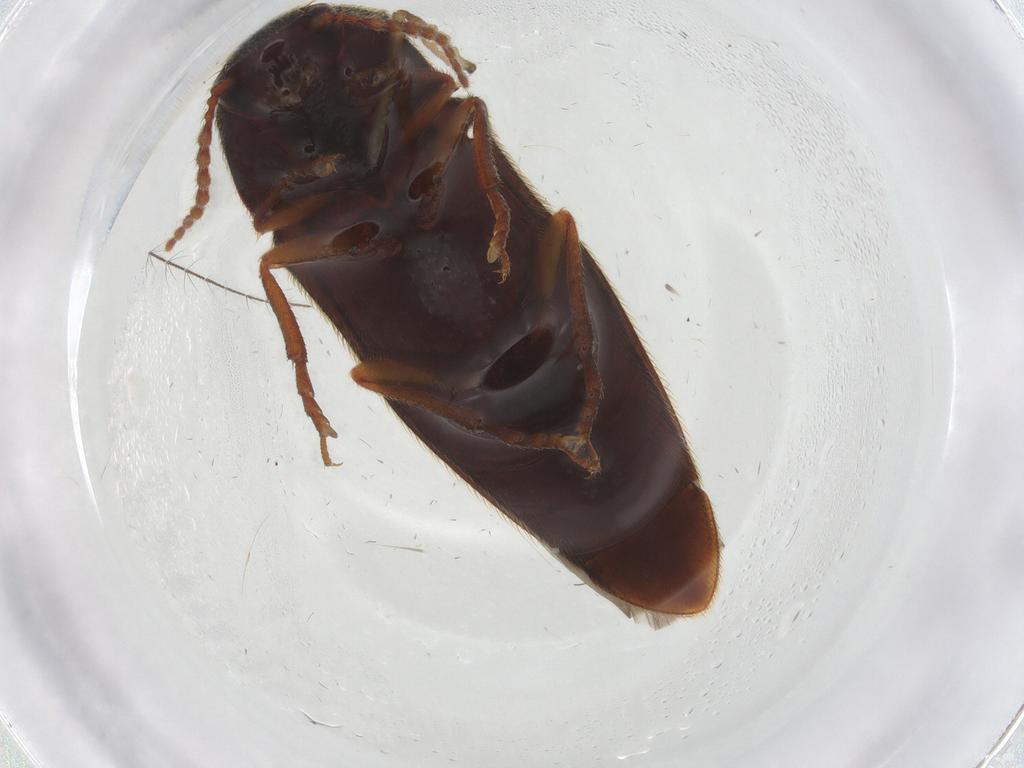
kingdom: Animalia
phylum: Arthropoda
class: Insecta
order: Coleoptera
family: Elateridae
